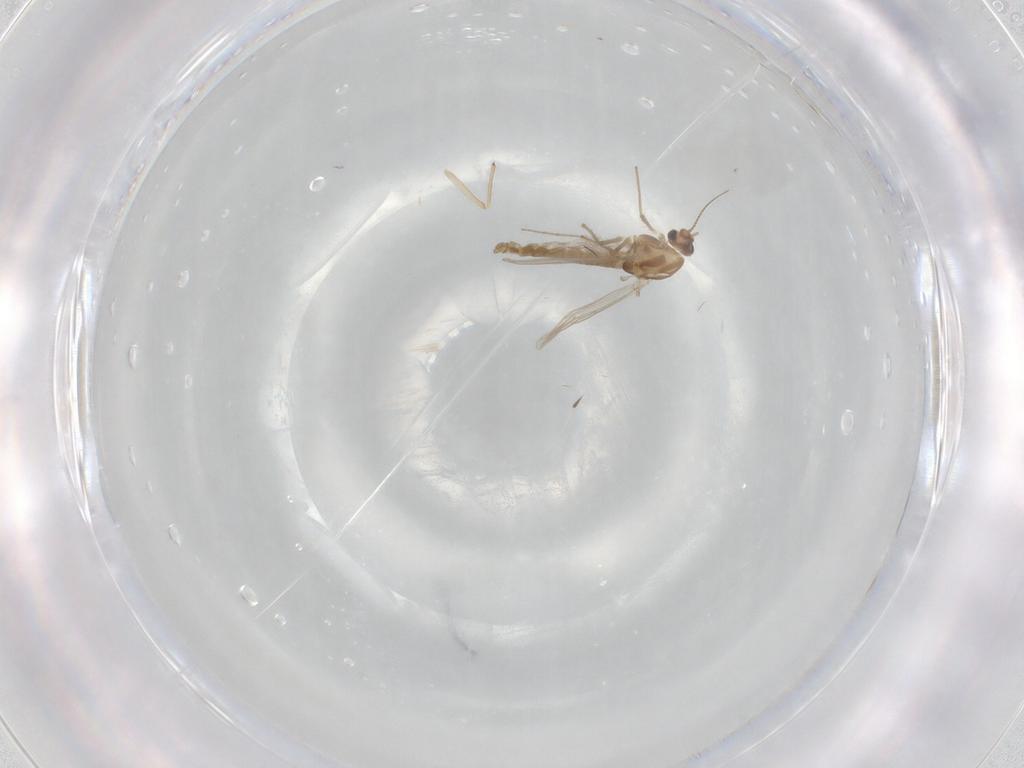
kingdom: Animalia
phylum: Arthropoda
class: Insecta
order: Diptera
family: Chironomidae
